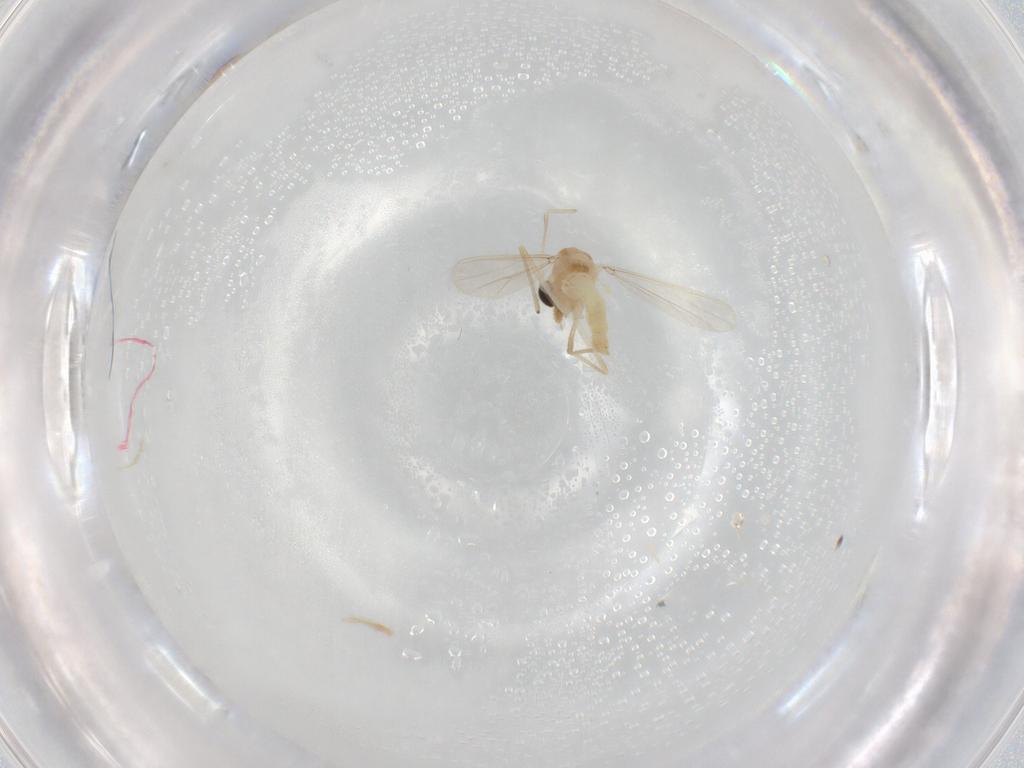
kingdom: Animalia
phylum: Arthropoda
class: Insecta
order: Diptera
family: Chironomidae
